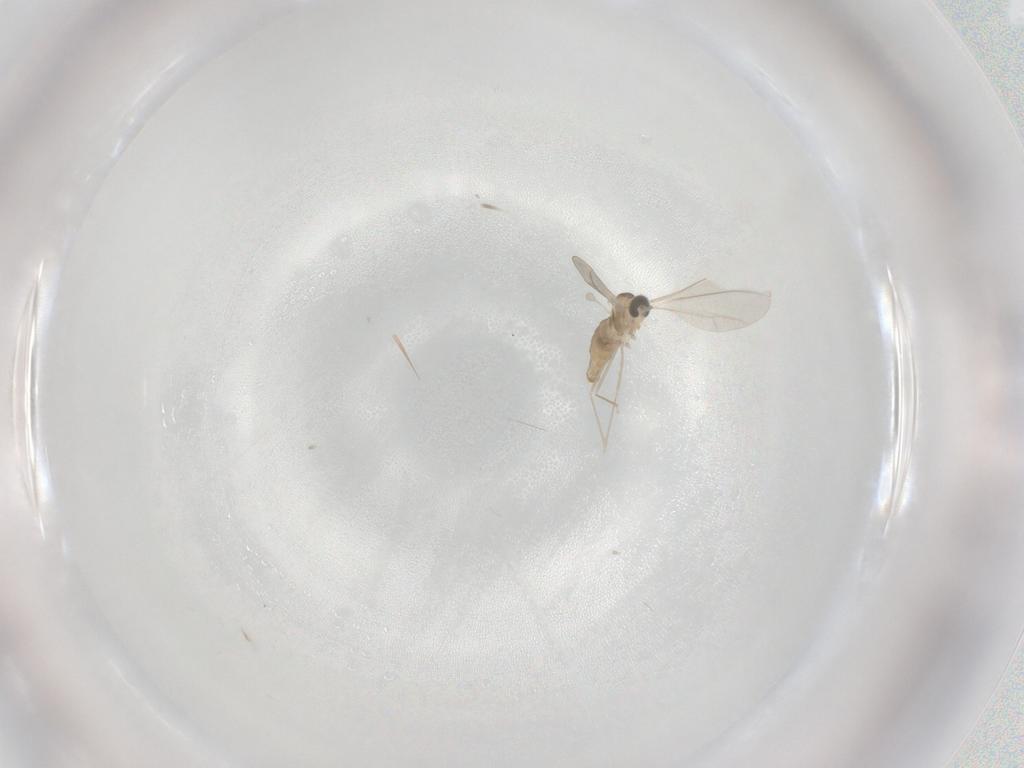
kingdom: Animalia
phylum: Arthropoda
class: Insecta
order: Diptera
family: Cecidomyiidae
